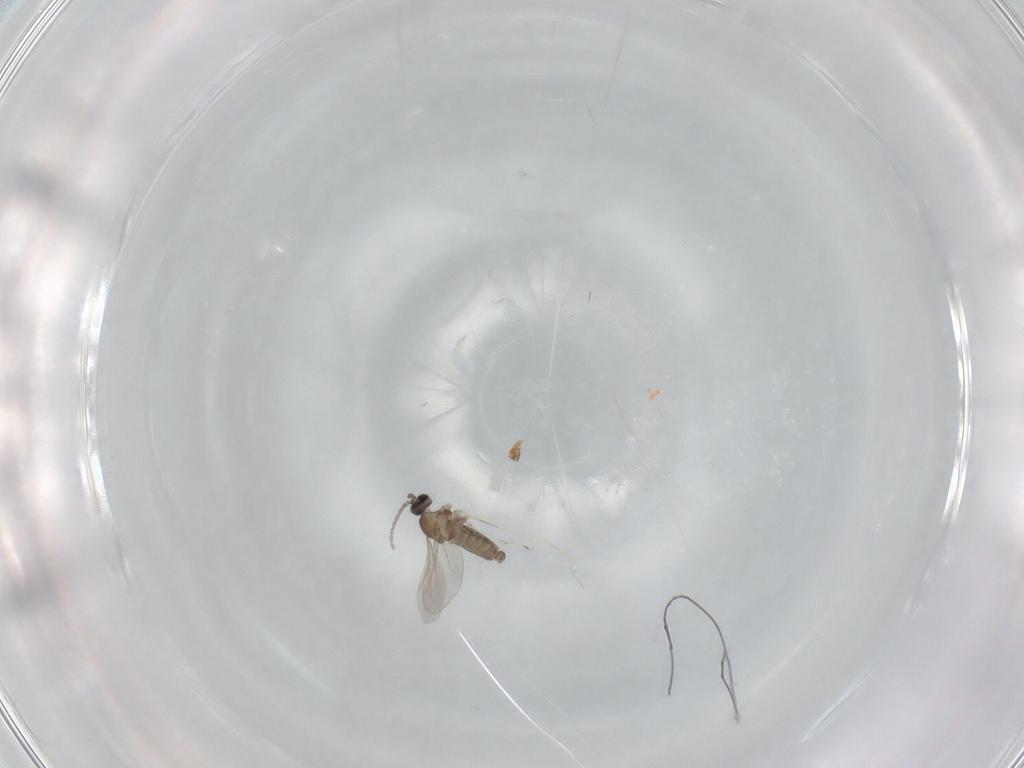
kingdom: Animalia
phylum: Arthropoda
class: Insecta
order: Diptera
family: Cecidomyiidae
